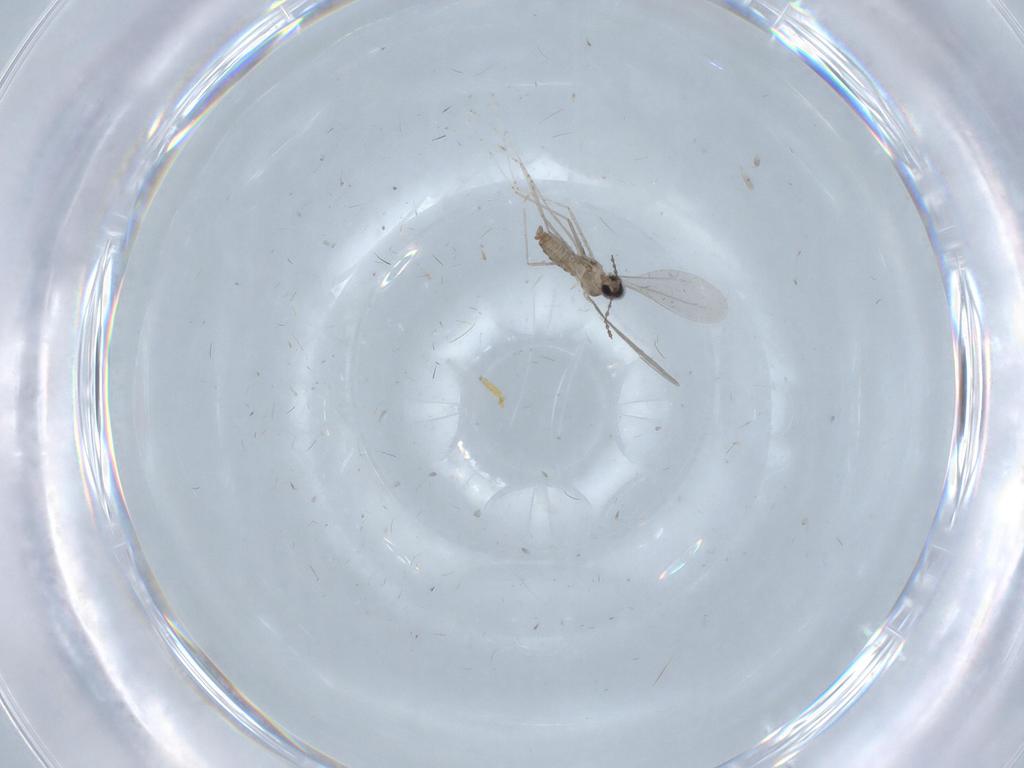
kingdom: Animalia
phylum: Arthropoda
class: Insecta
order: Diptera
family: Cecidomyiidae
